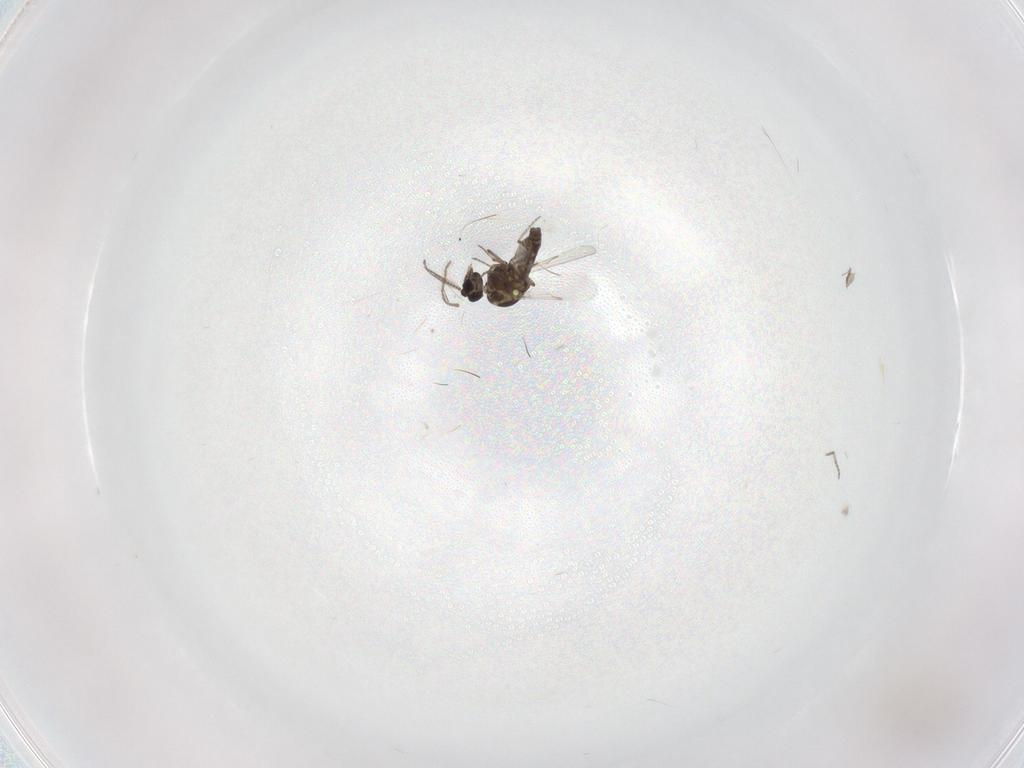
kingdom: Animalia
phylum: Arthropoda
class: Insecta
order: Diptera
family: Ceratopogonidae
